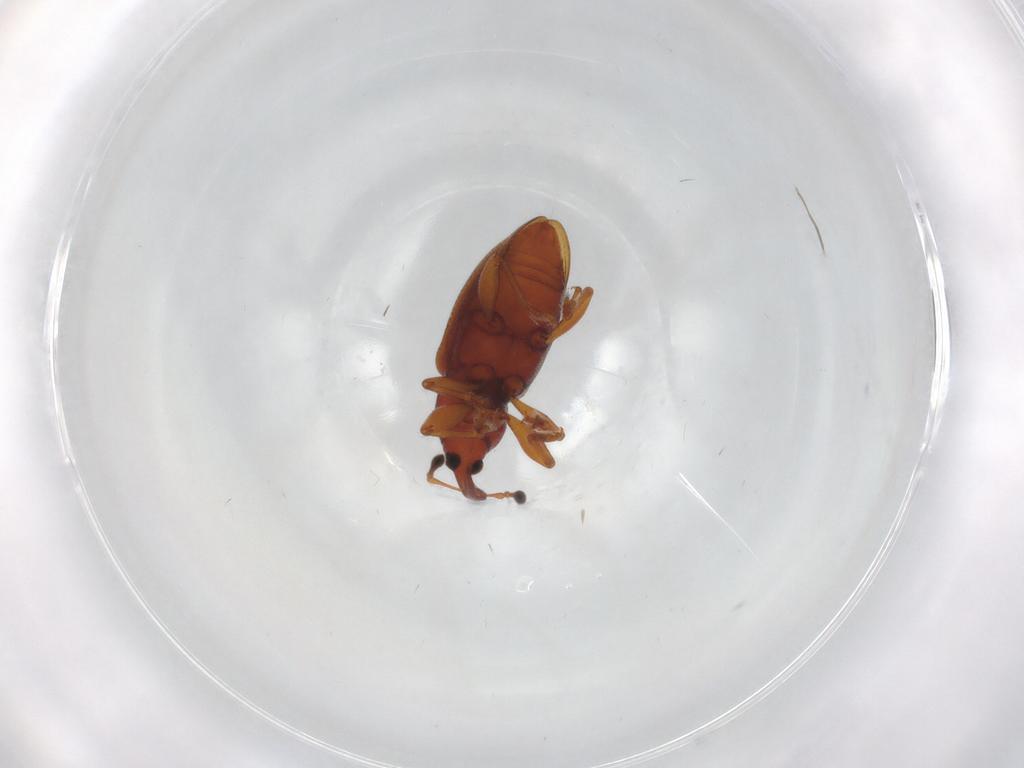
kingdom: Animalia
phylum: Arthropoda
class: Insecta
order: Coleoptera
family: Curculionidae
